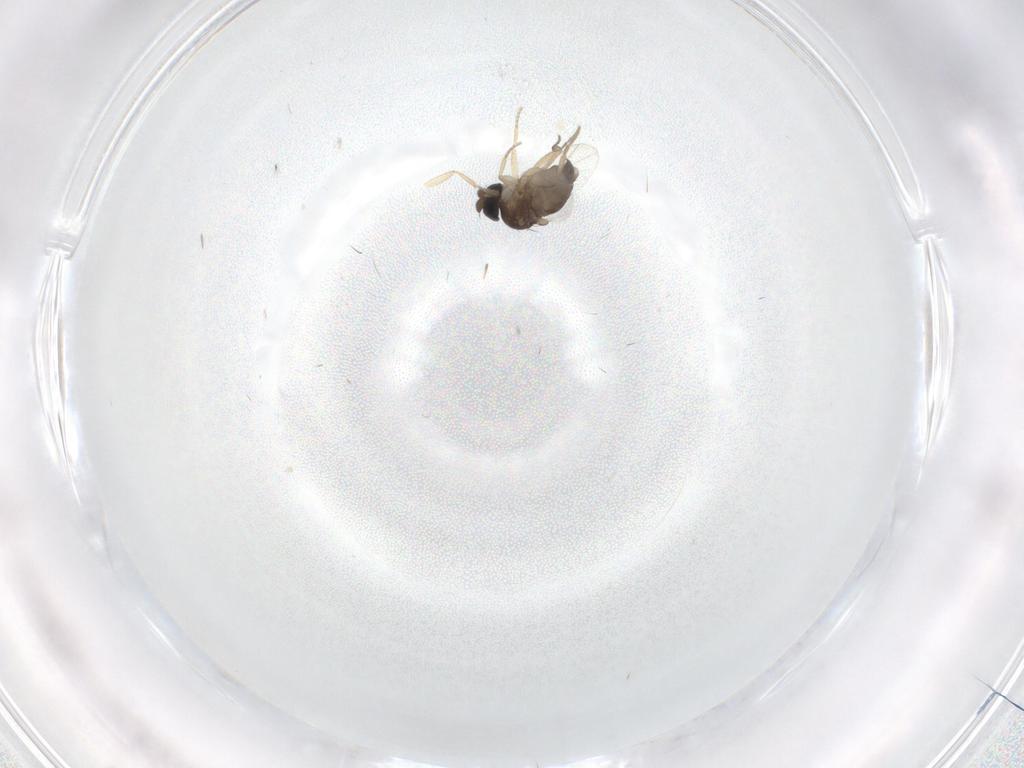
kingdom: Animalia
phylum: Arthropoda
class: Insecta
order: Diptera
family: Phoridae
